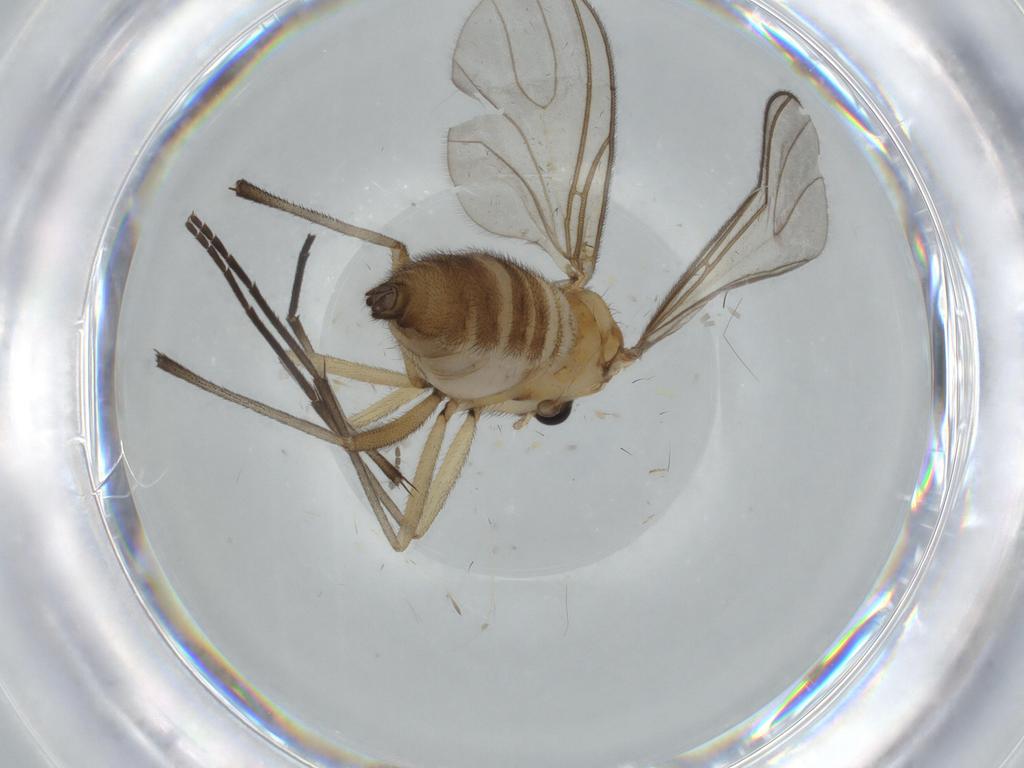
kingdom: Animalia
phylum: Arthropoda
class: Insecta
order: Diptera
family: Sciaridae
